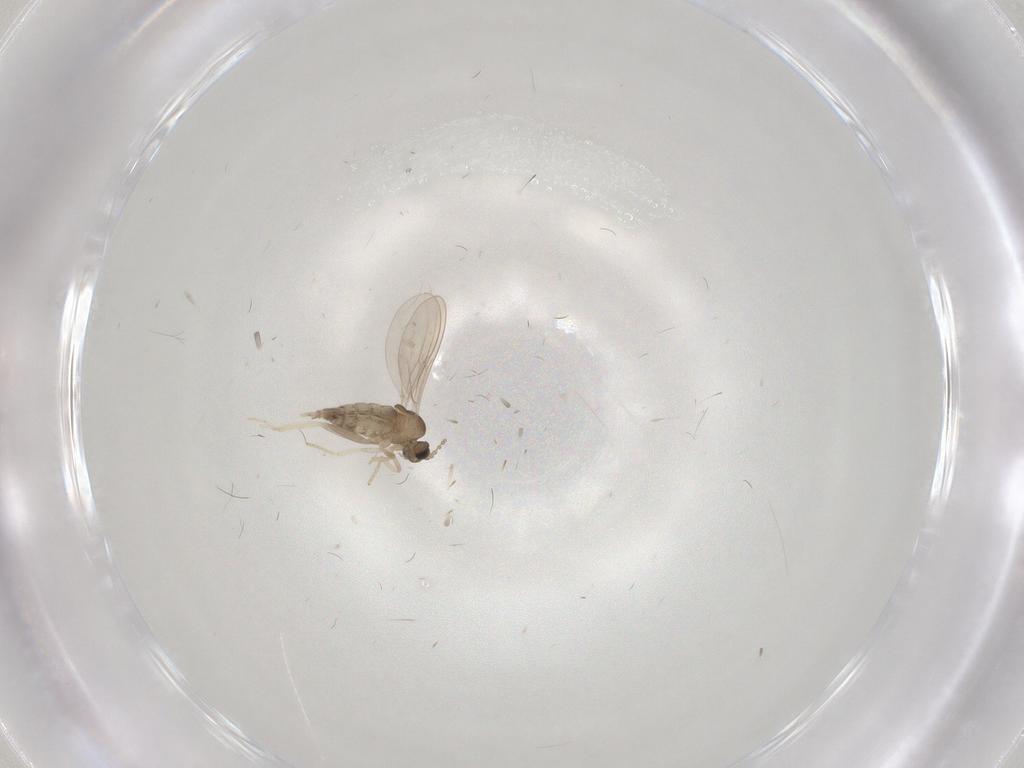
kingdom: Animalia
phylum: Arthropoda
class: Insecta
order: Diptera
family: Cecidomyiidae
